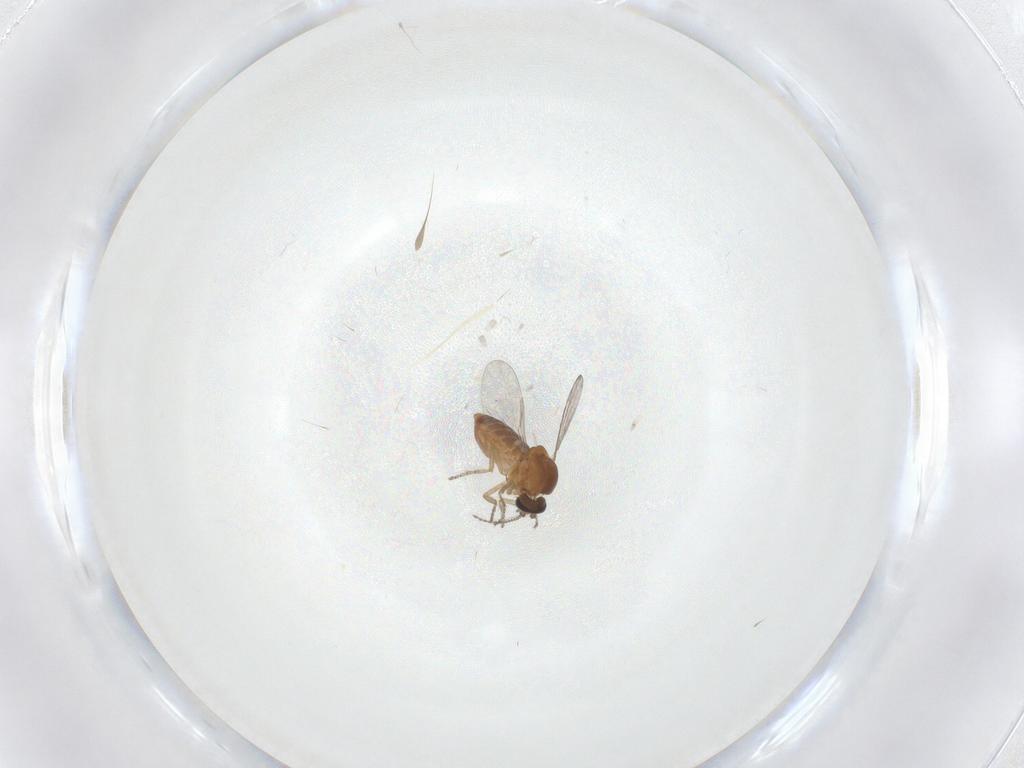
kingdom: Animalia
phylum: Arthropoda
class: Insecta
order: Diptera
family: Ceratopogonidae
